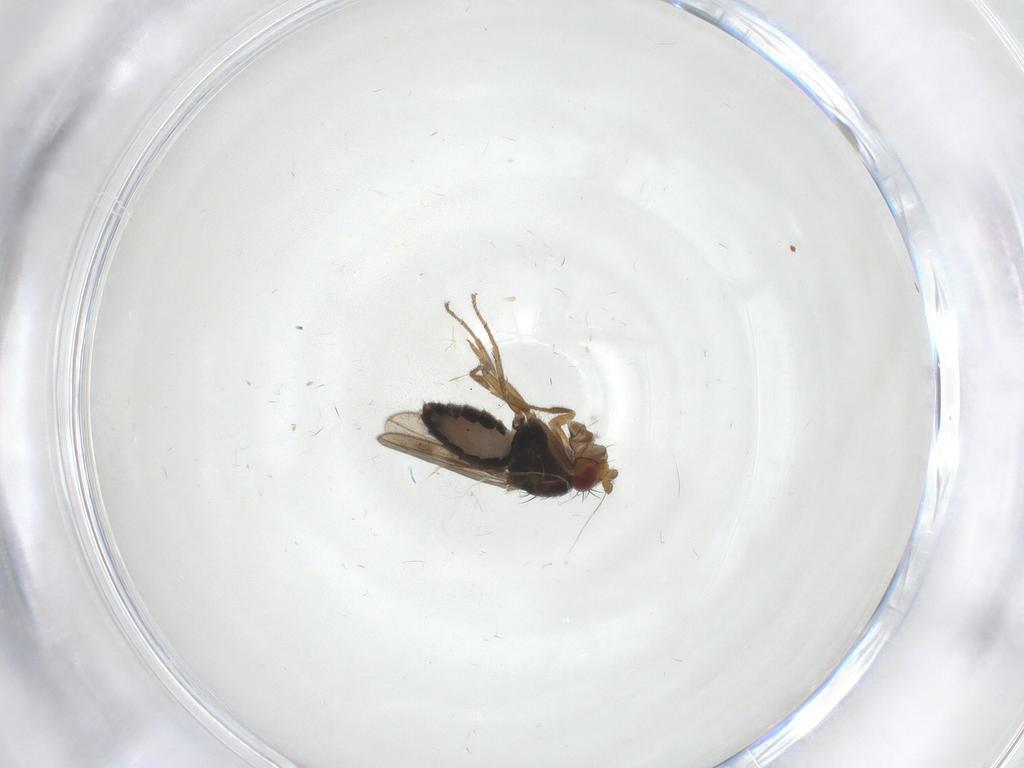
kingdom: Animalia
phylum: Arthropoda
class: Insecta
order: Diptera
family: Sphaeroceridae
